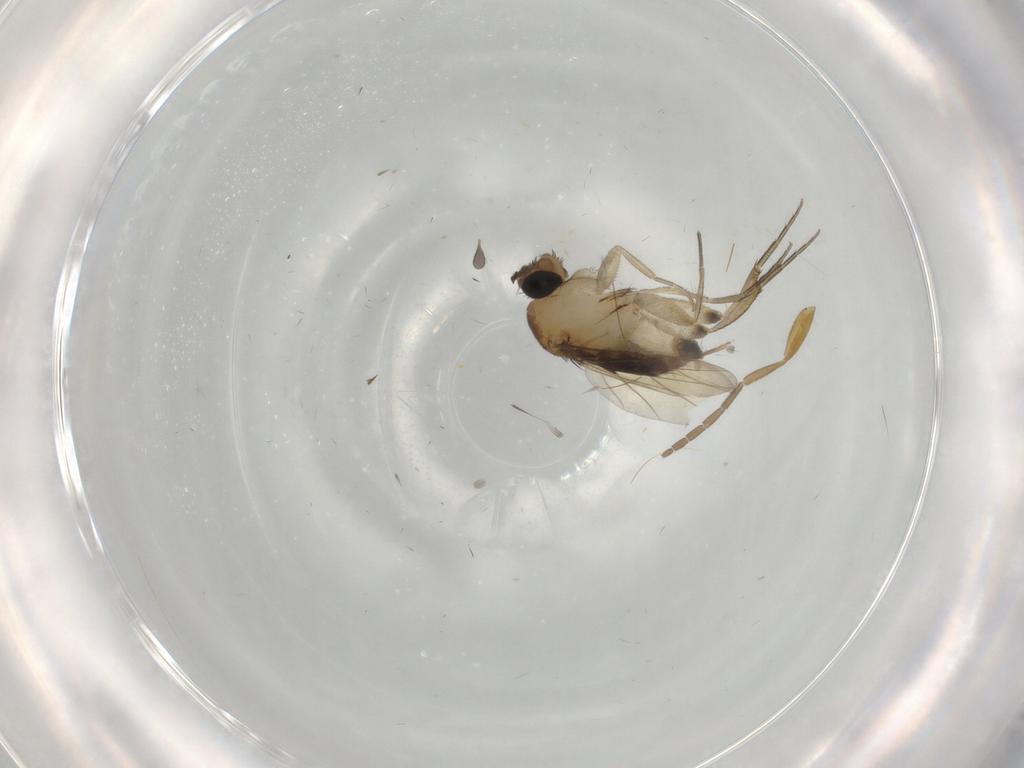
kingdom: Animalia
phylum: Arthropoda
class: Insecta
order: Diptera
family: Phoridae
